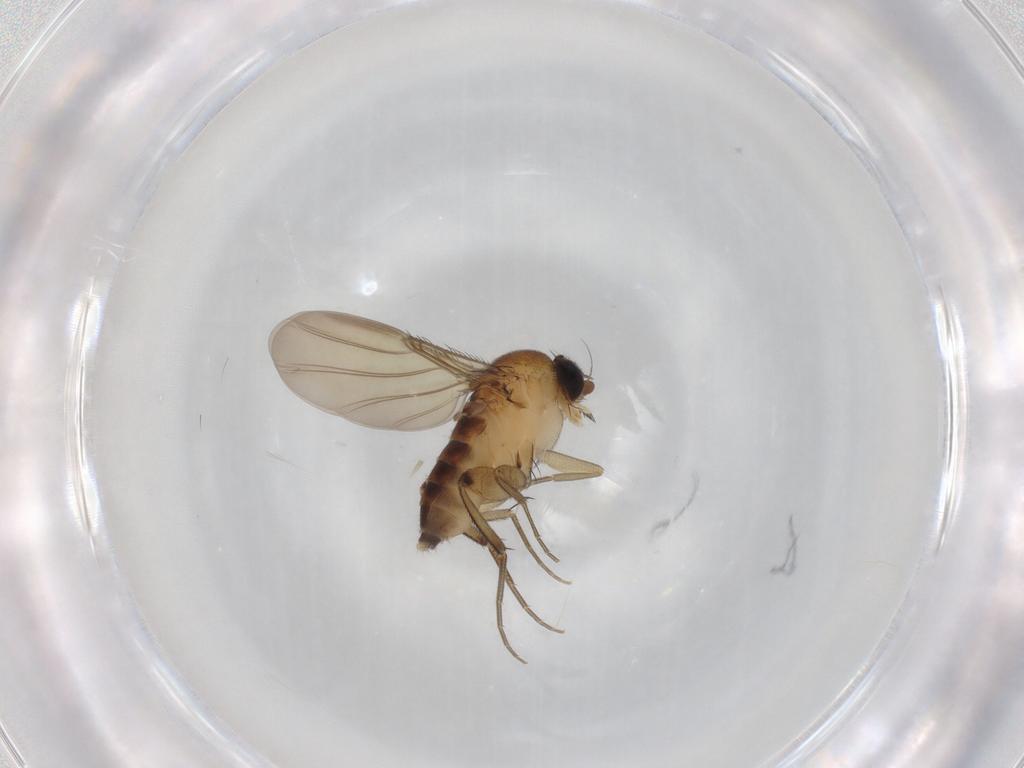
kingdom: Animalia
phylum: Arthropoda
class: Insecta
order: Diptera
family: Phoridae
